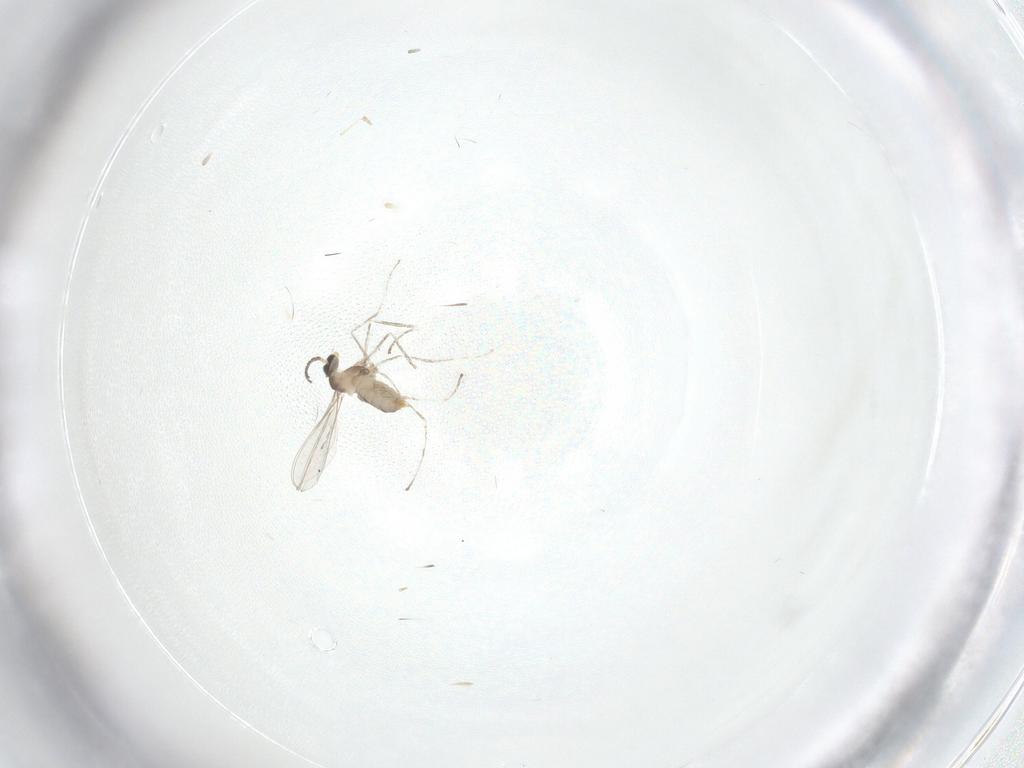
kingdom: Animalia
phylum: Arthropoda
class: Insecta
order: Diptera
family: Cecidomyiidae
